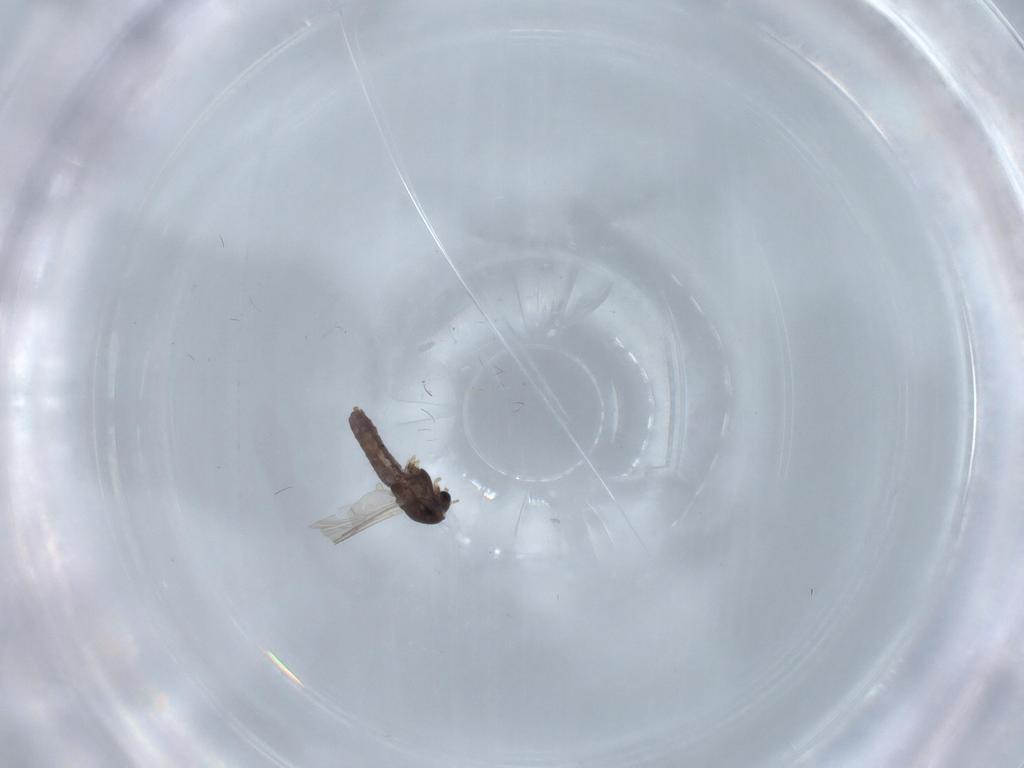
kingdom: Animalia
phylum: Arthropoda
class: Insecta
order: Diptera
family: Chironomidae
